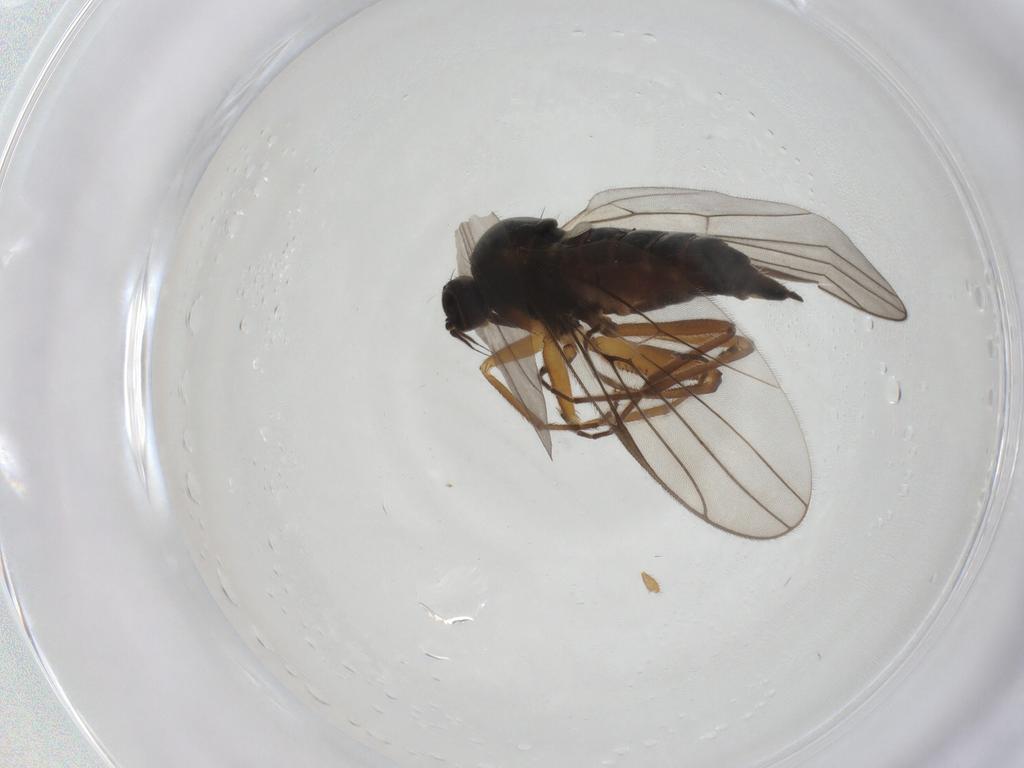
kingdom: Animalia
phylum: Arthropoda
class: Insecta
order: Diptera
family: Hybotidae
